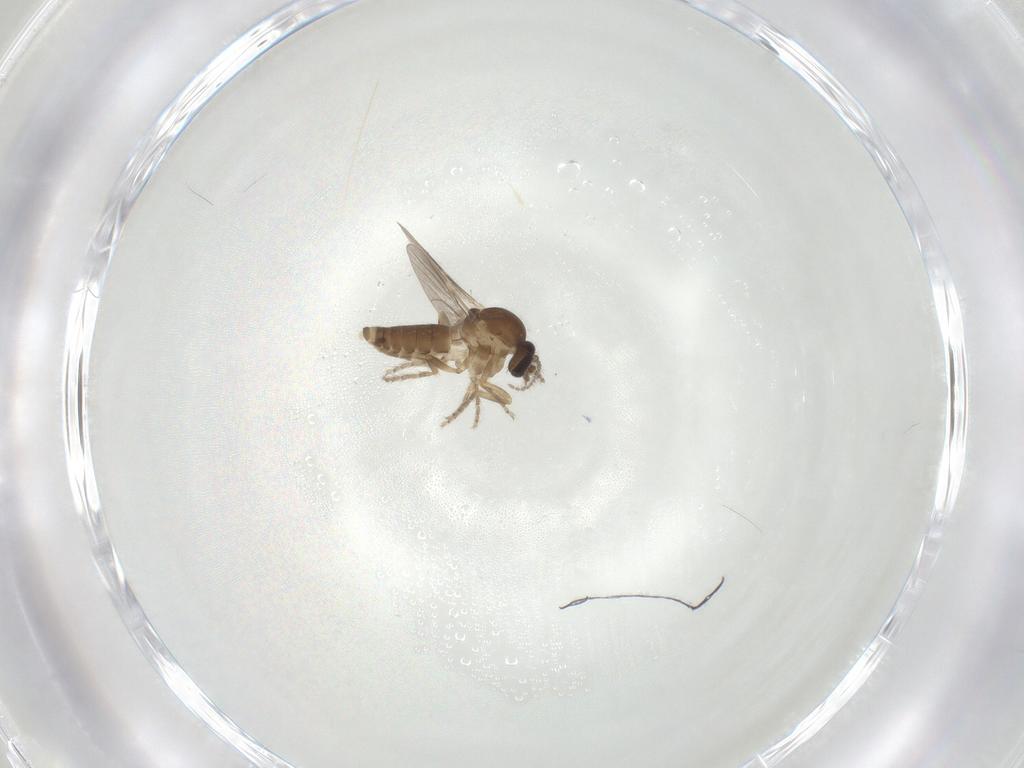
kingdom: Animalia
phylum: Arthropoda
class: Insecta
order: Diptera
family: Ceratopogonidae
